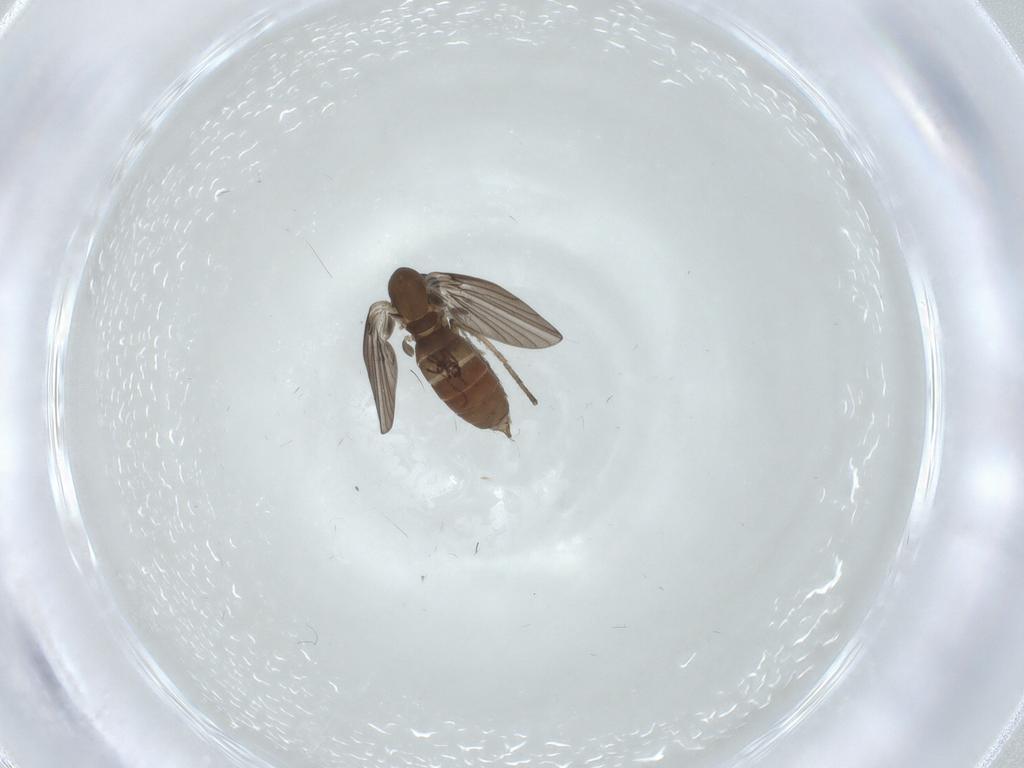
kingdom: Animalia
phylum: Arthropoda
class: Insecta
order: Diptera
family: Psychodidae
